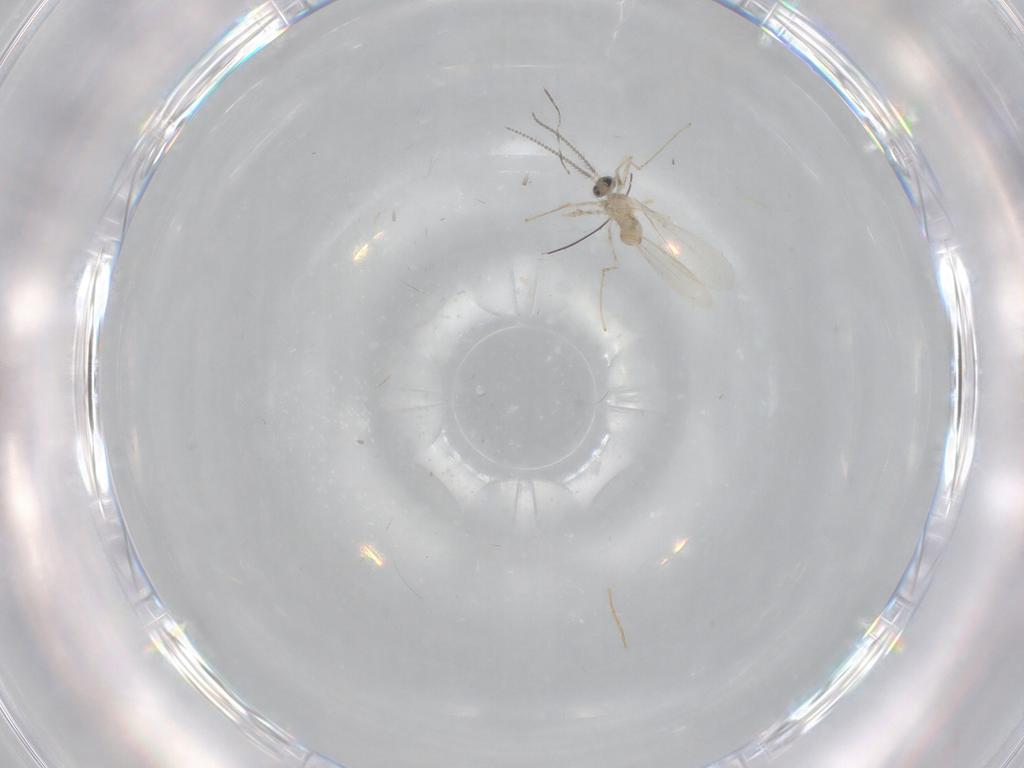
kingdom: Animalia
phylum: Arthropoda
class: Insecta
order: Diptera
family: Cecidomyiidae
